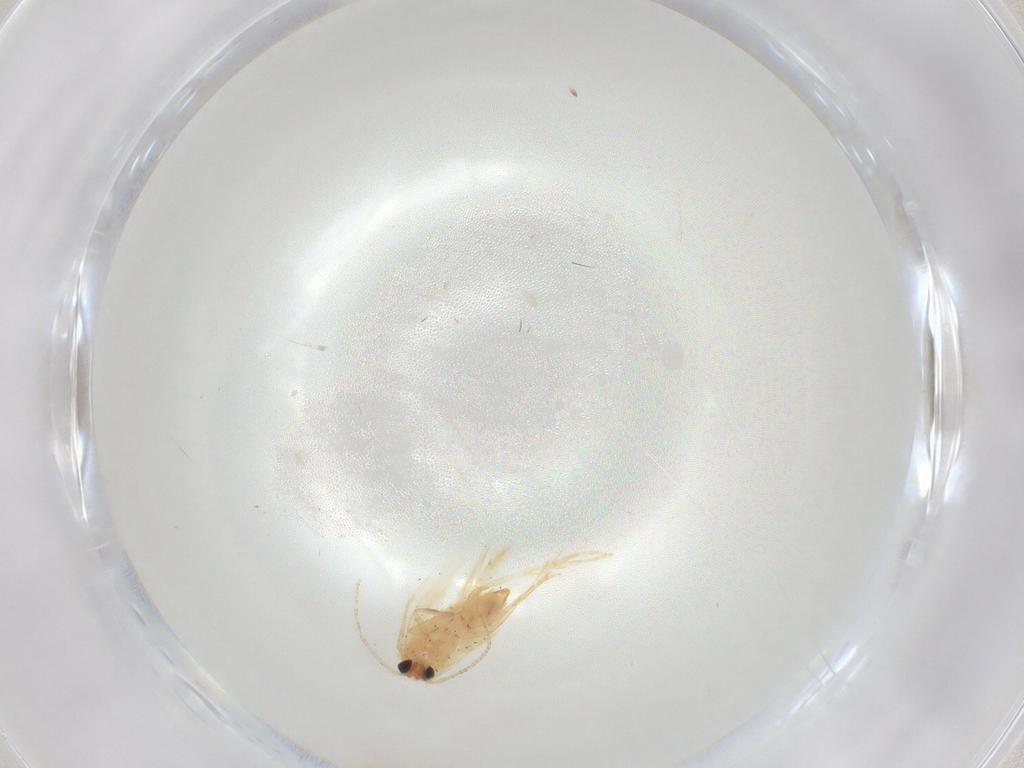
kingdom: Animalia
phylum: Arthropoda
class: Insecta
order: Lepidoptera
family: Nepticulidae
